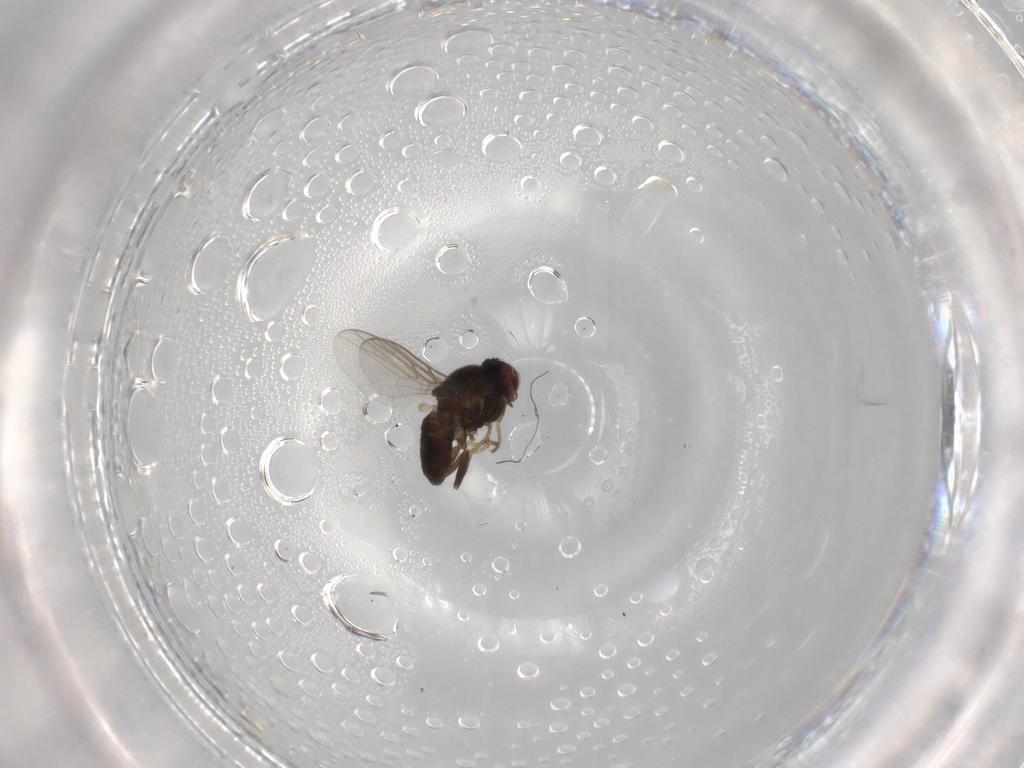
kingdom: Animalia
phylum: Arthropoda
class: Insecta
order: Diptera
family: Chloropidae
